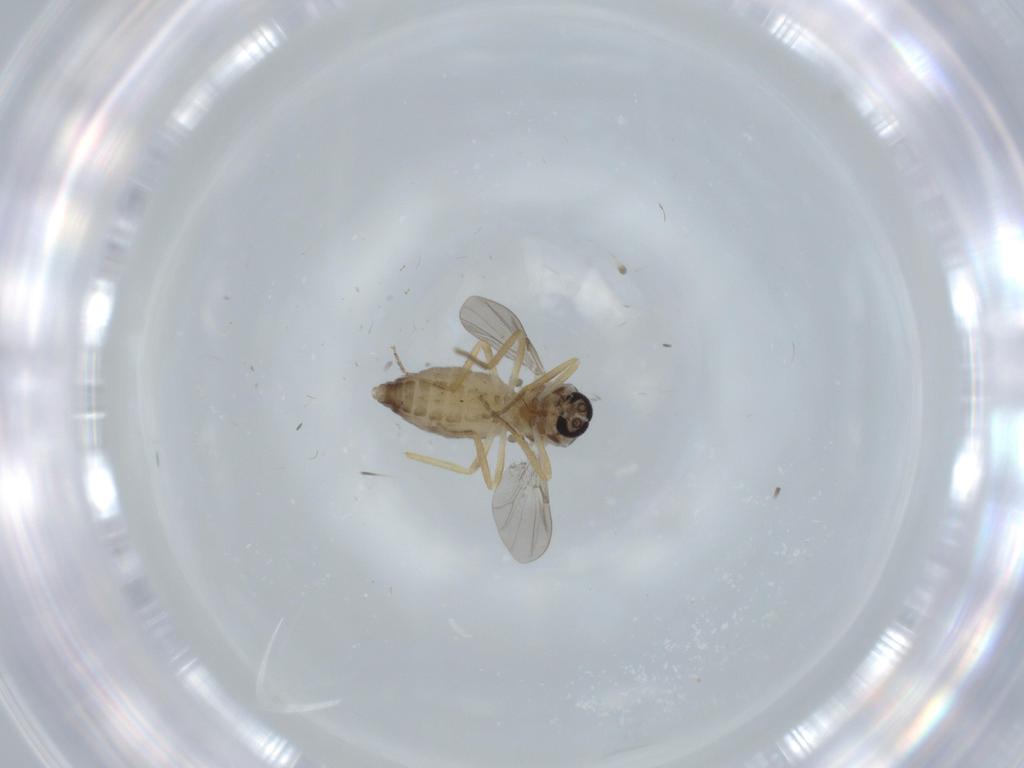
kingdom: Animalia
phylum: Arthropoda
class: Insecta
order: Diptera
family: Ceratopogonidae
